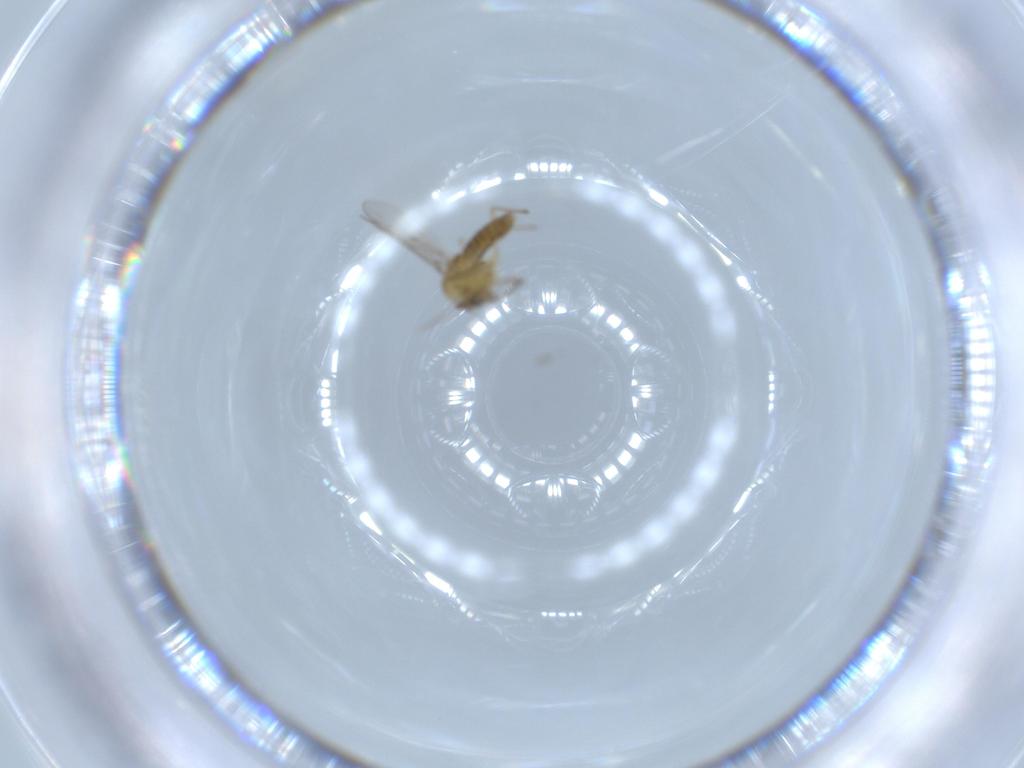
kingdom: Animalia
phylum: Arthropoda
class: Insecta
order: Diptera
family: Chironomidae
